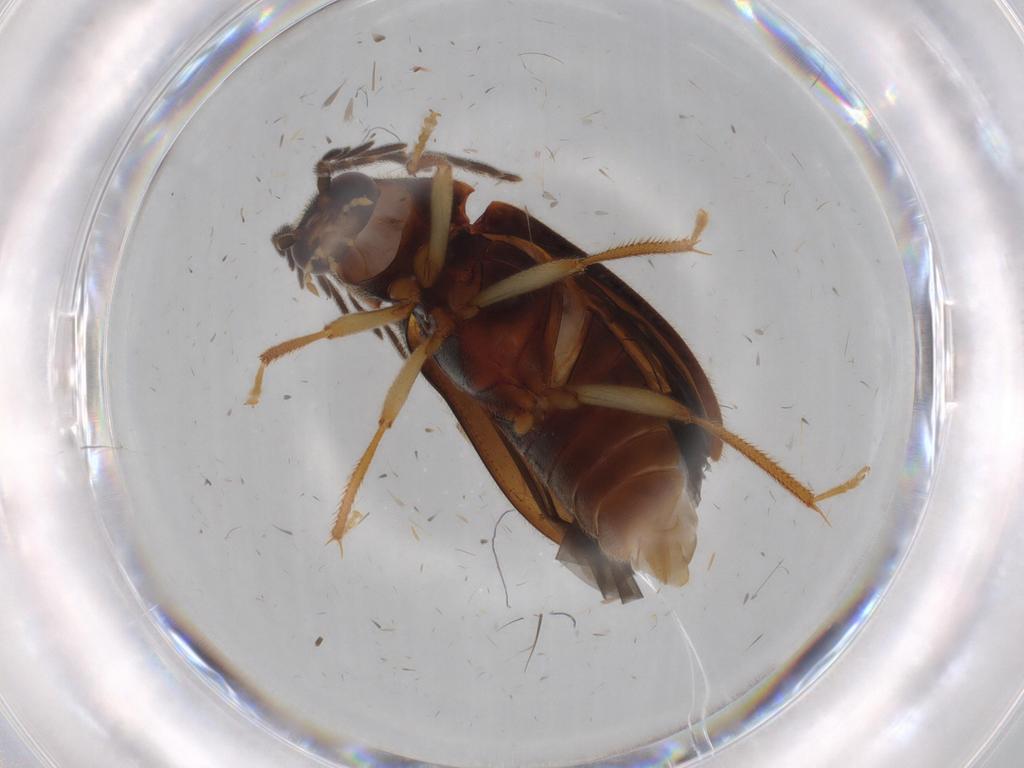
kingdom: Animalia
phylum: Arthropoda
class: Insecta
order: Coleoptera
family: Ptilodactylidae
